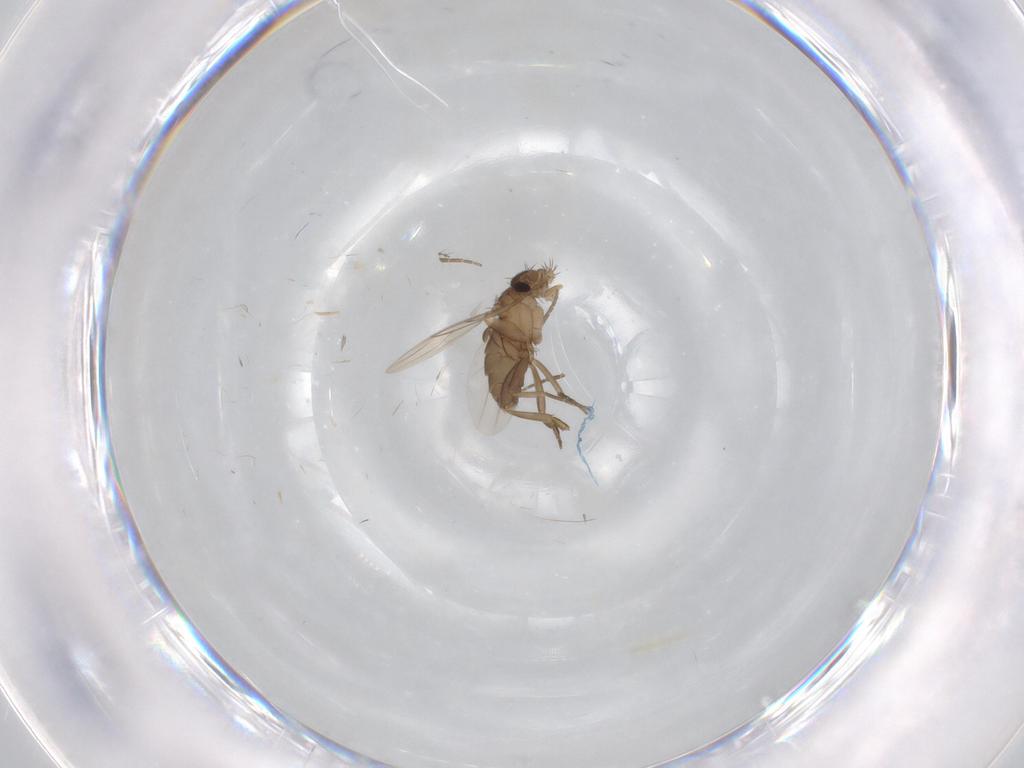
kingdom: Animalia
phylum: Arthropoda
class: Insecta
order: Diptera
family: Phoridae
